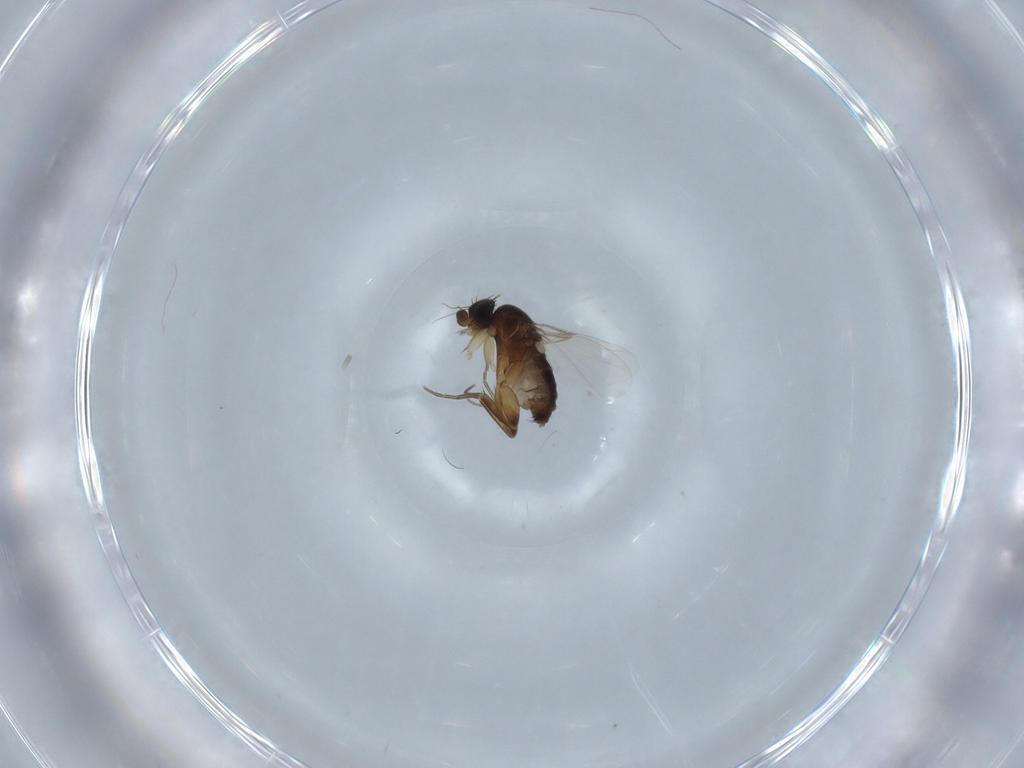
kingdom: Animalia
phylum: Arthropoda
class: Insecta
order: Diptera
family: Phoridae
